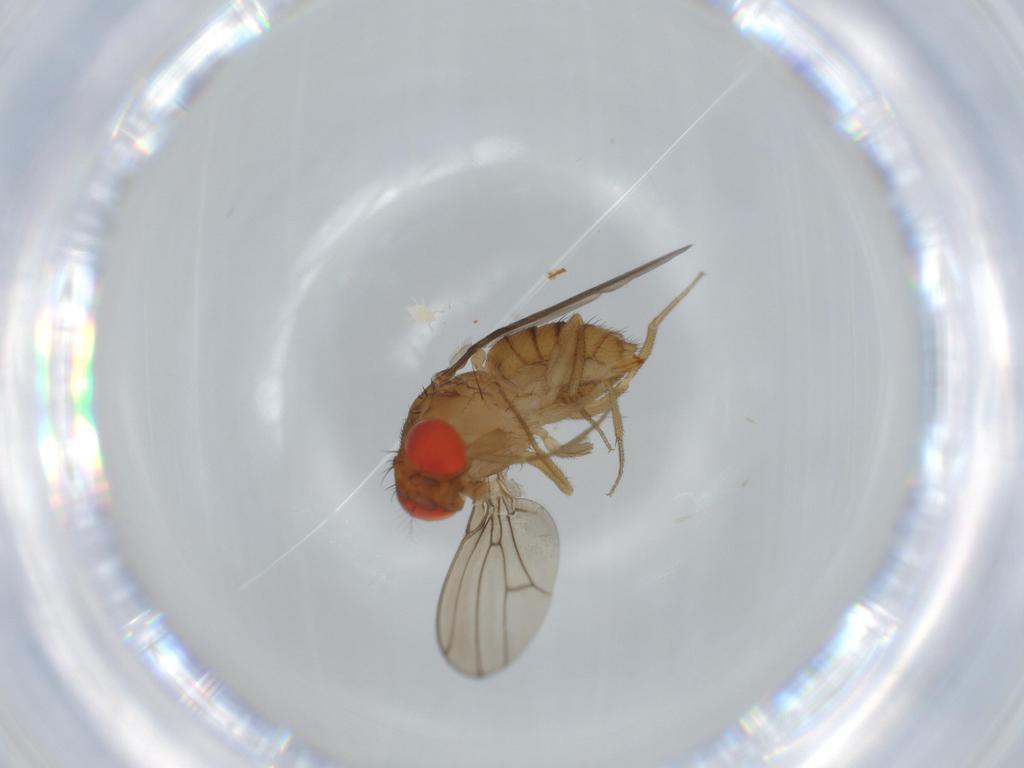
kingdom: Animalia
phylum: Arthropoda
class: Insecta
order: Diptera
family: Drosophilidae
